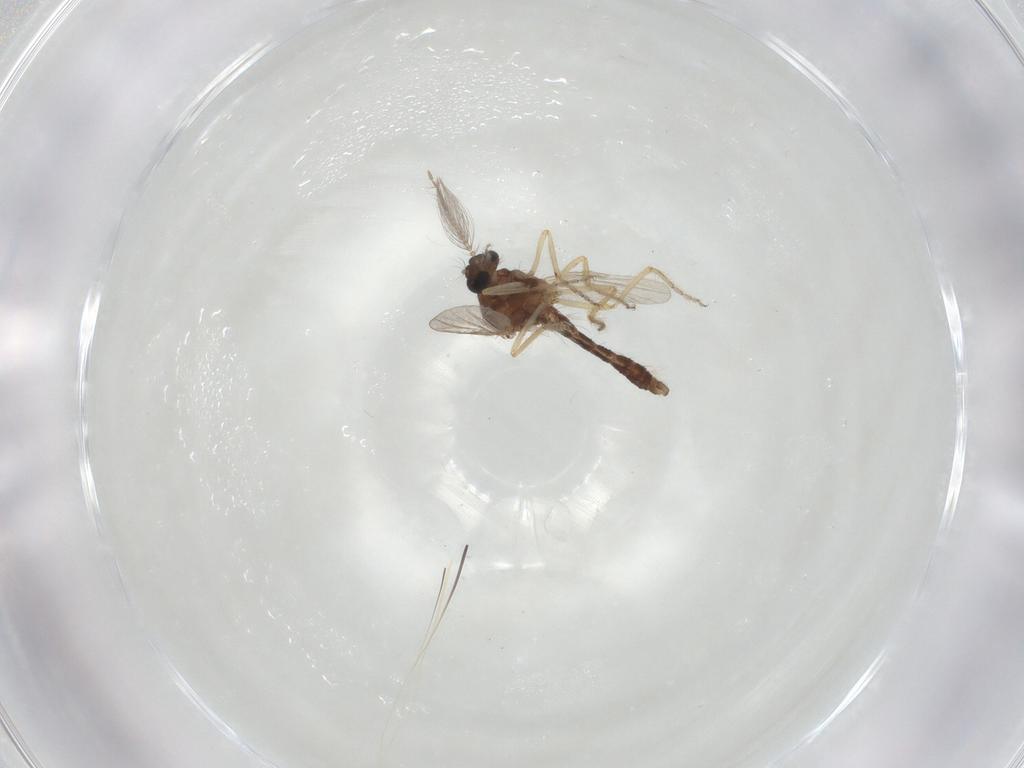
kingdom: Animalia
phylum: Arthropoda
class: Insecta
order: Diptera
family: Ceratopogonidae
